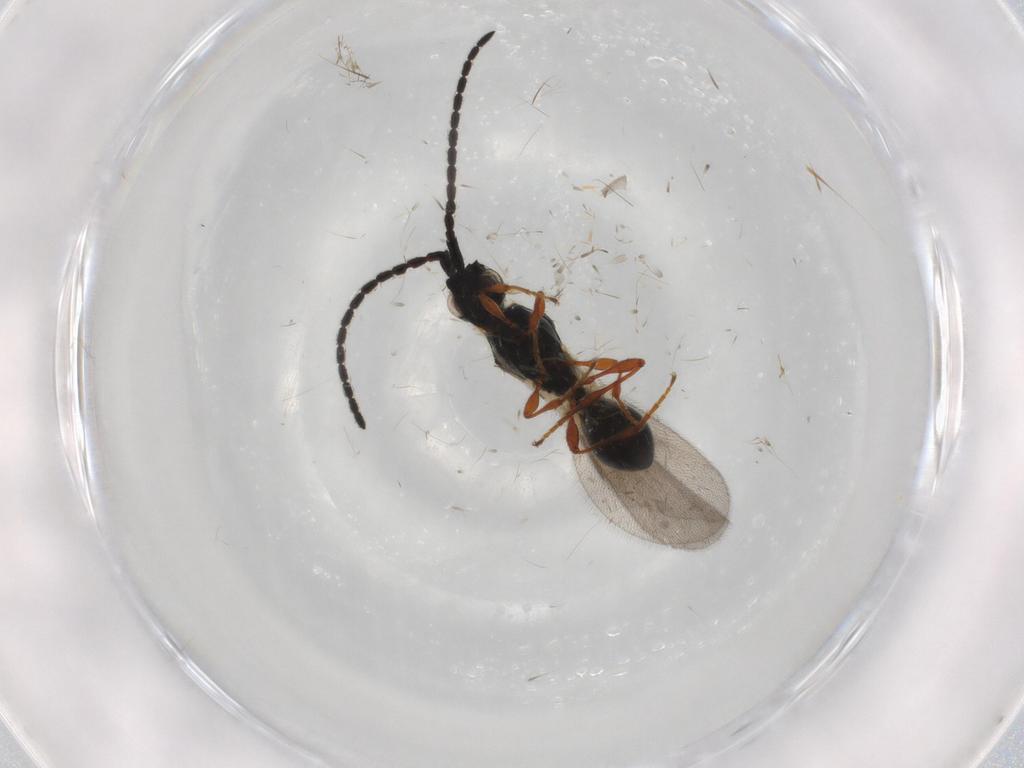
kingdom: Animalia
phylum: Arthropoda
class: Insecta
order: Hymenoptera
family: Diapriidae
